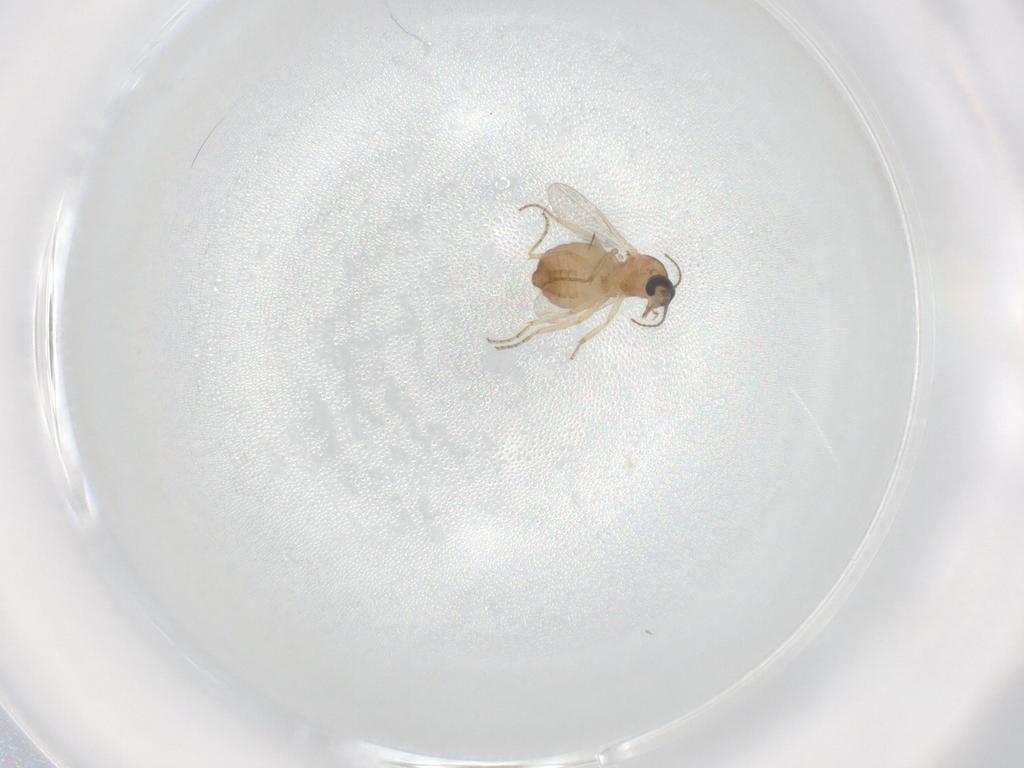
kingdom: Animalia
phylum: Arthropoda
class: Insecta
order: Diptera
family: Ceratopogonidae
